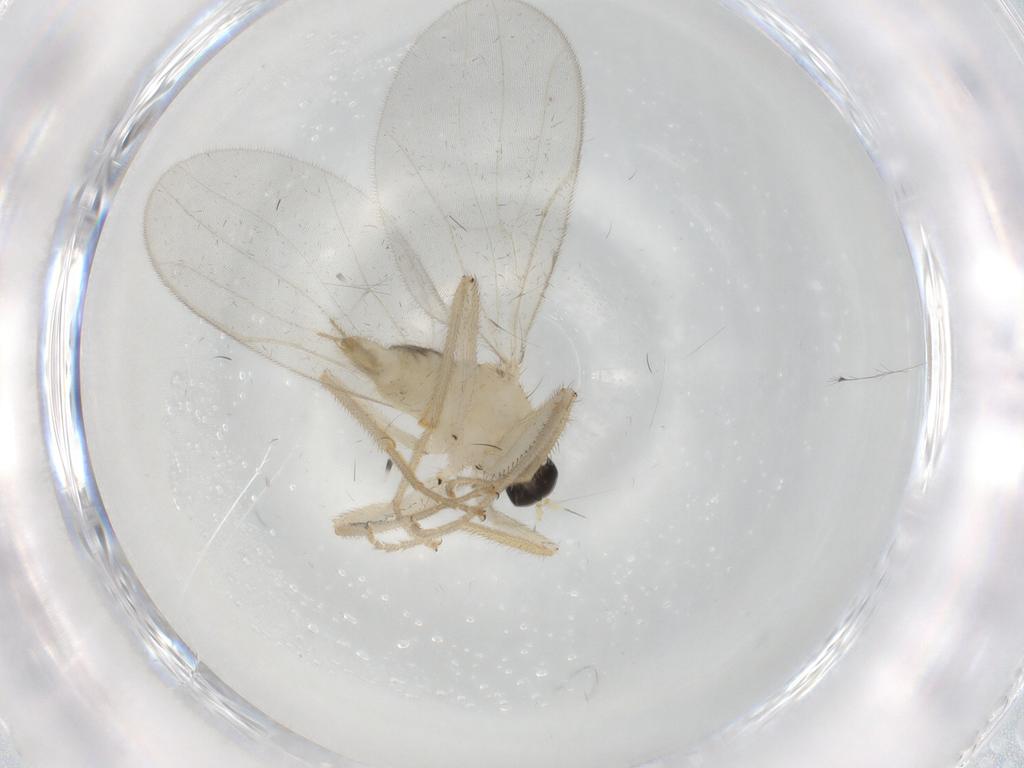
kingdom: Animalia
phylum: Arthropoda
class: Insecta
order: Diptera
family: Hybotidae
